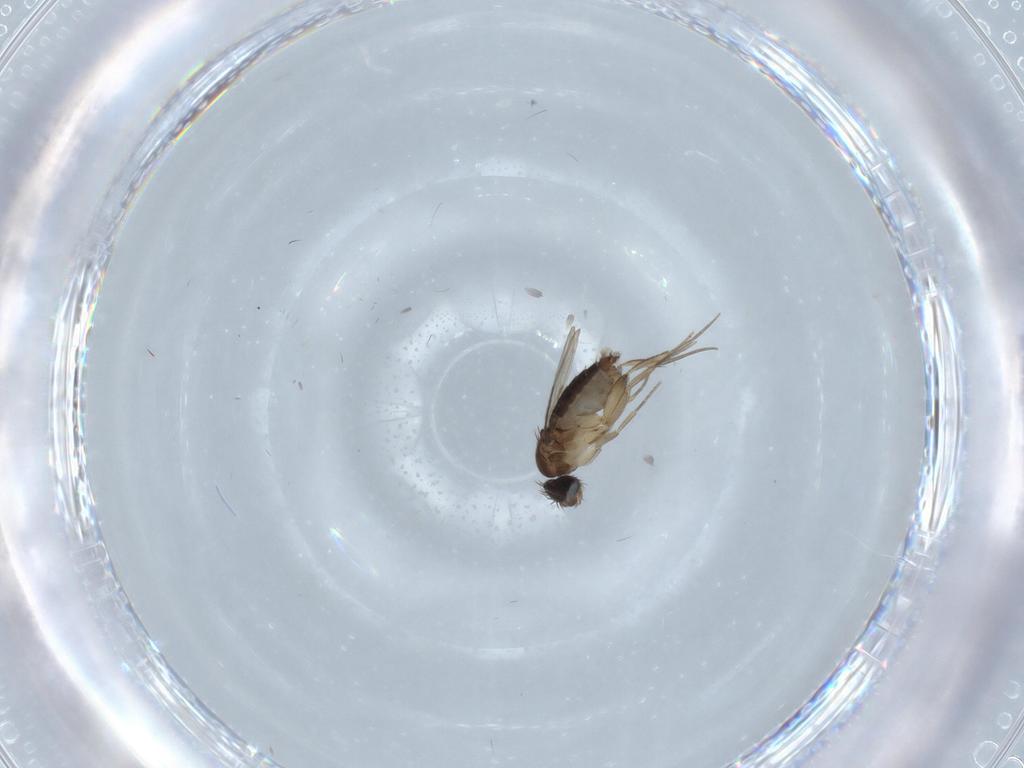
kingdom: Animalia
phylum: Arthropoda
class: Insecta
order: Diptera
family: Phoridae
